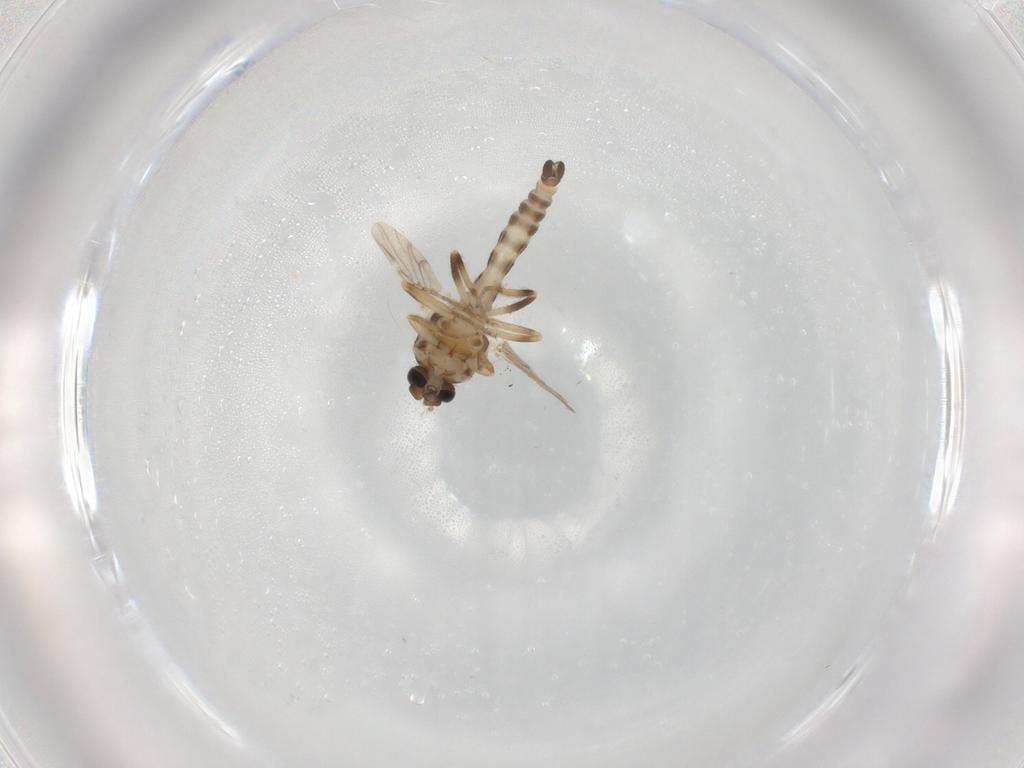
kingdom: Animalia
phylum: Arthropoda
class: Insecta
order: Diptera
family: Ceratopogonidae
